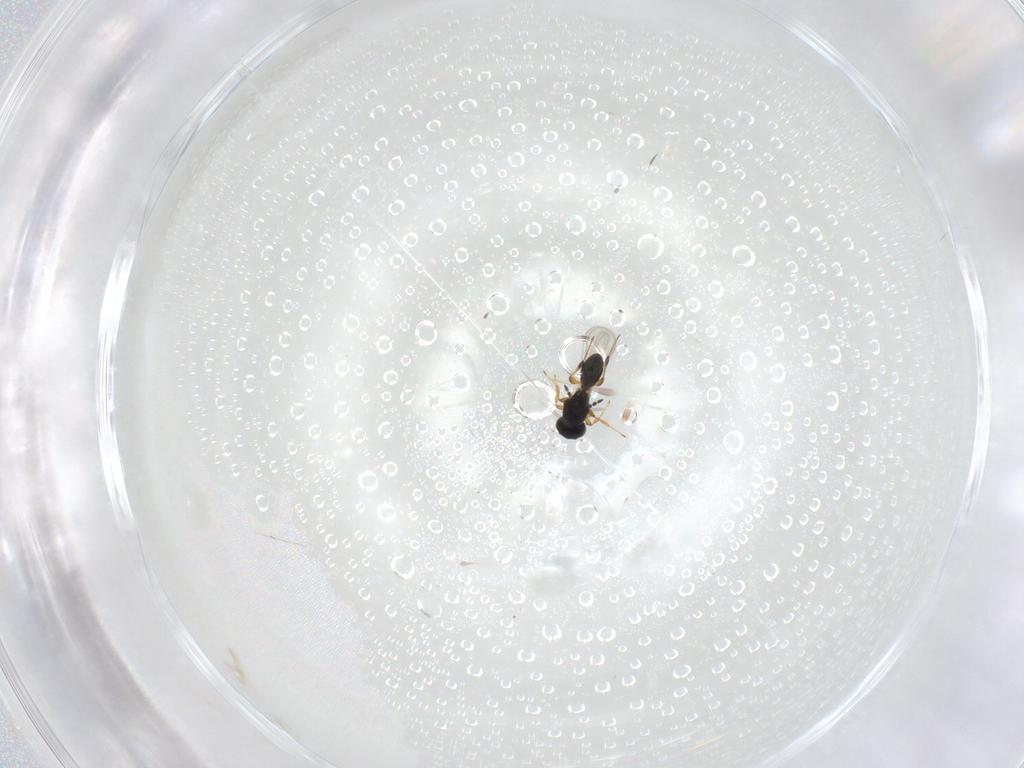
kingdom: Animalia
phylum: Arthropoda
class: Insecta
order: Hymenoptera
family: Platygastridae
